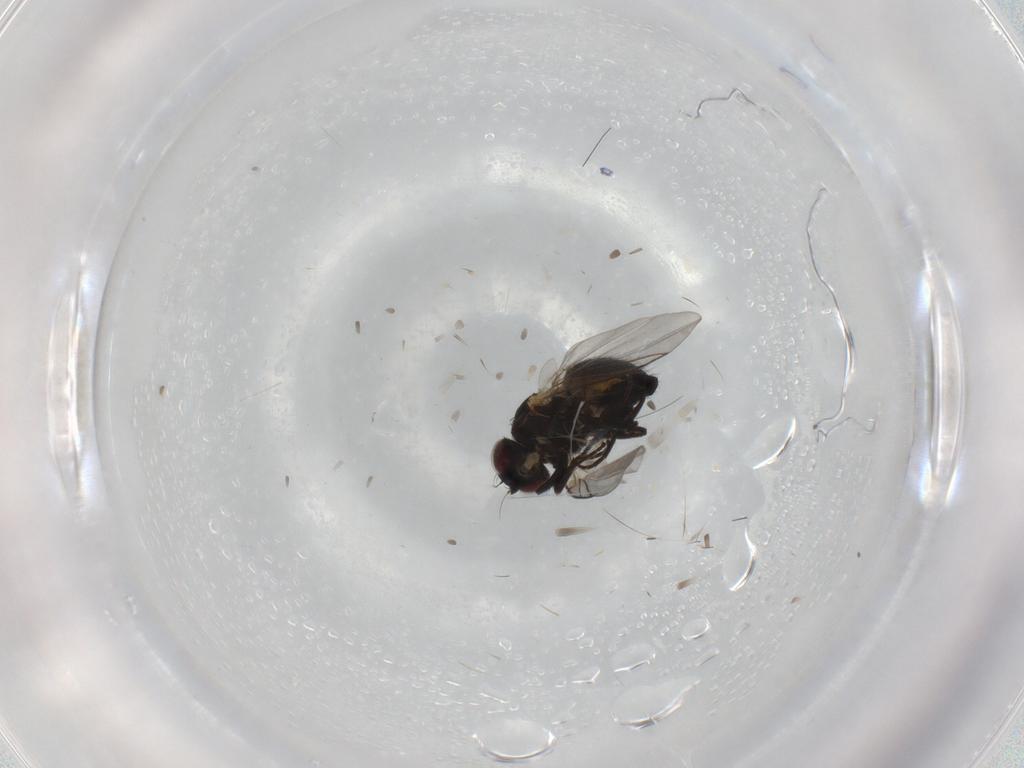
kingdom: Animalia
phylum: Arthropoda
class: Insecta
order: Diptera
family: Cecidomyiidae
